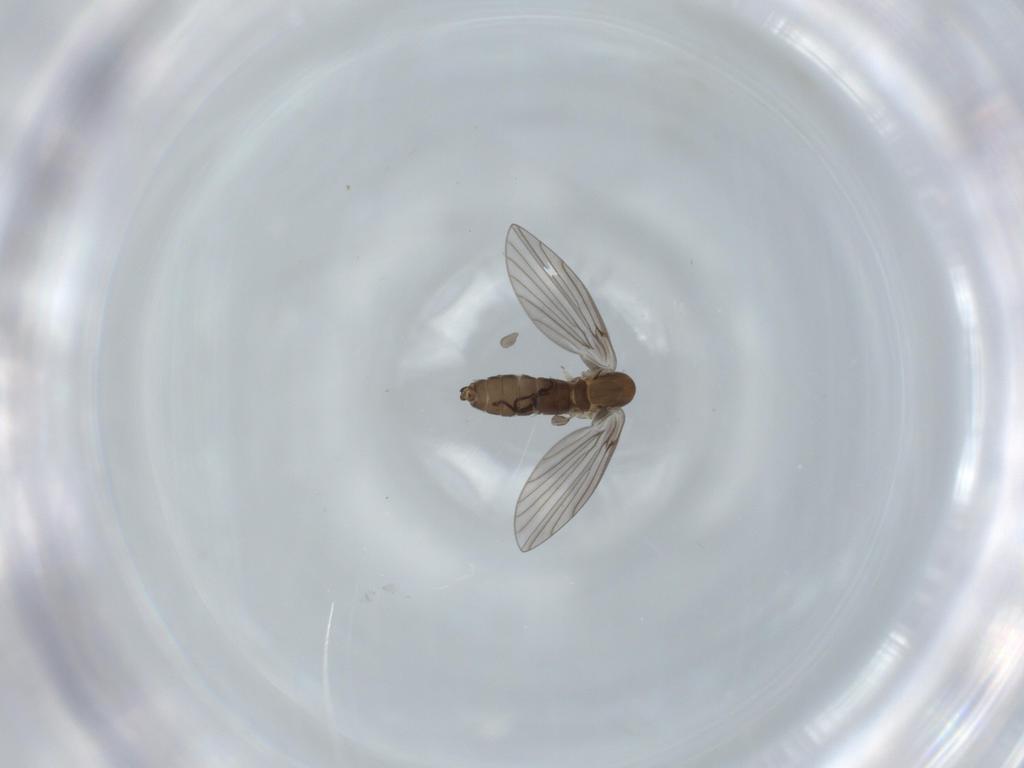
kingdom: Animalia
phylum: Arthropoda
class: Insecta
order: Diptera
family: Psychodidae
